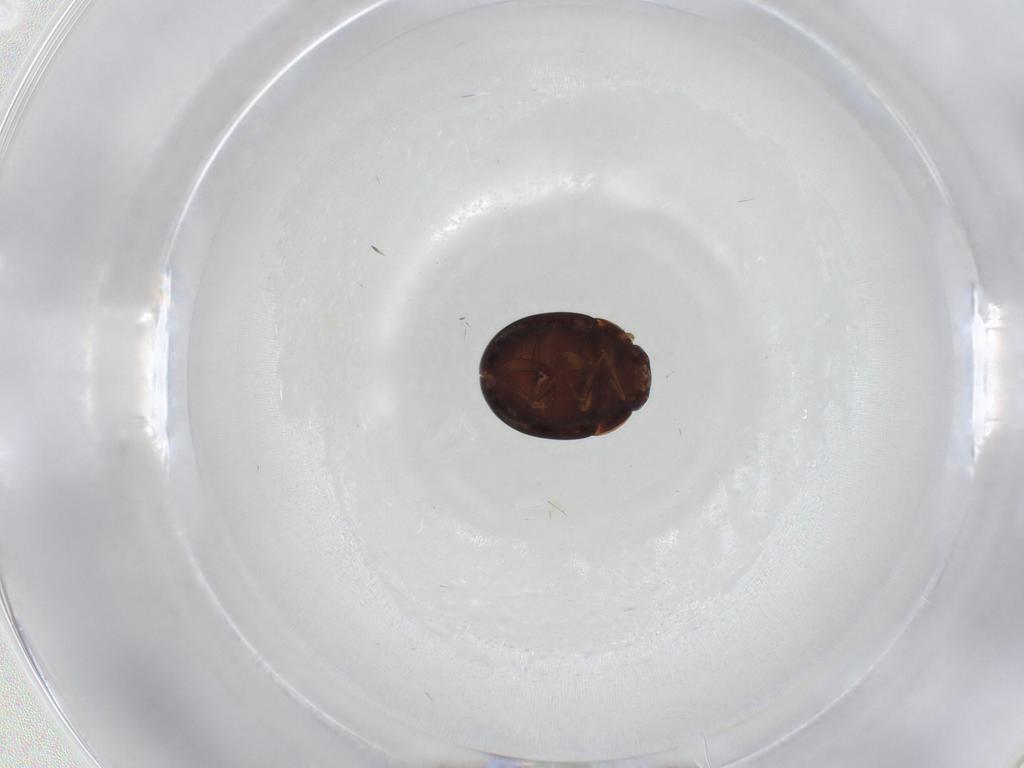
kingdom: Animalia
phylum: Arthropoda
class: Insecta
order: Coleoptera
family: Leiodidae
